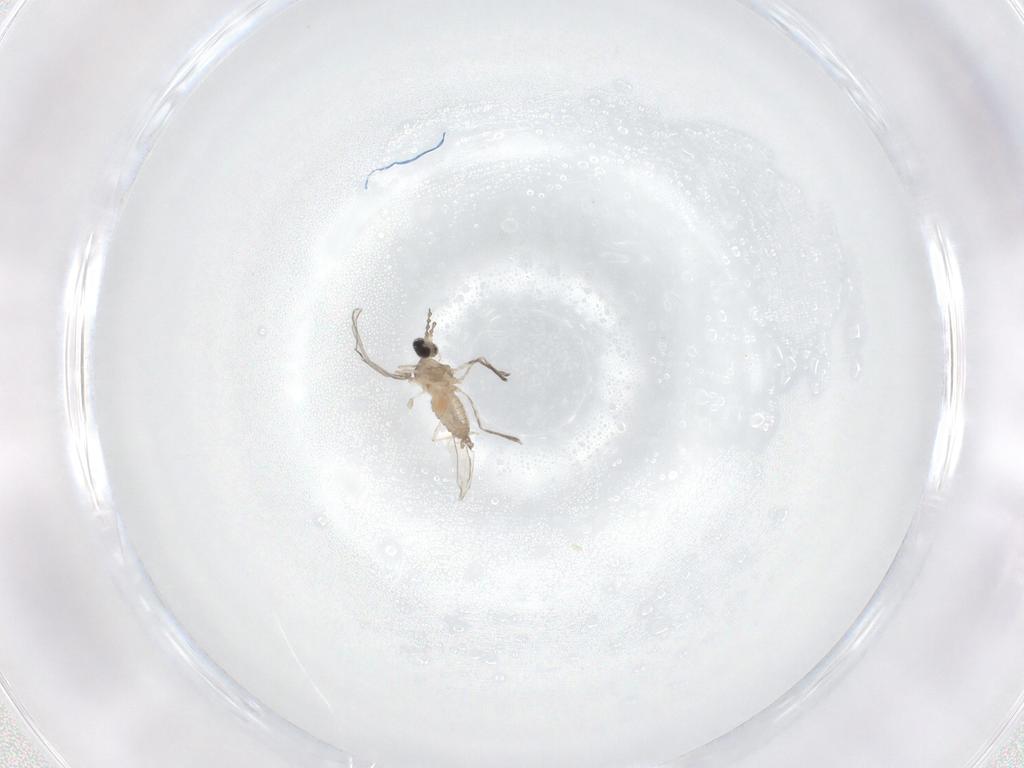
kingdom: Animalia
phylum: Arthropoda
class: Insecta
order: Diptera
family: Cecidomyiidae
